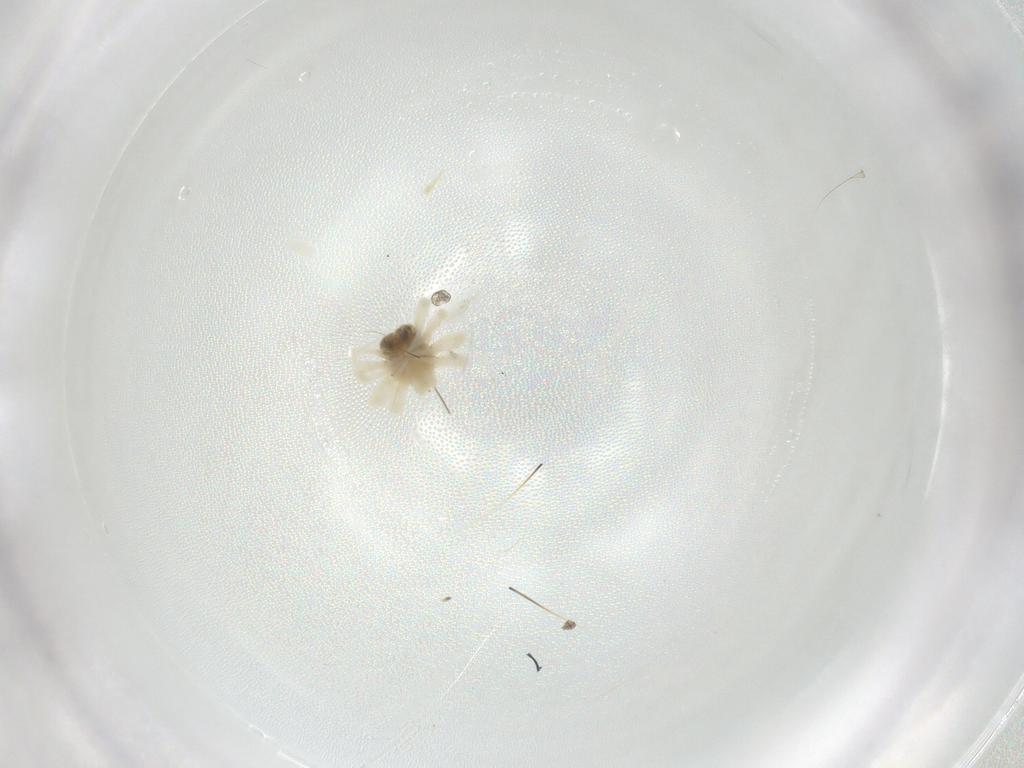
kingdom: Animalia
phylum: Arthropoda
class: Arachnida
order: Trombidiformes
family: Anystidae
